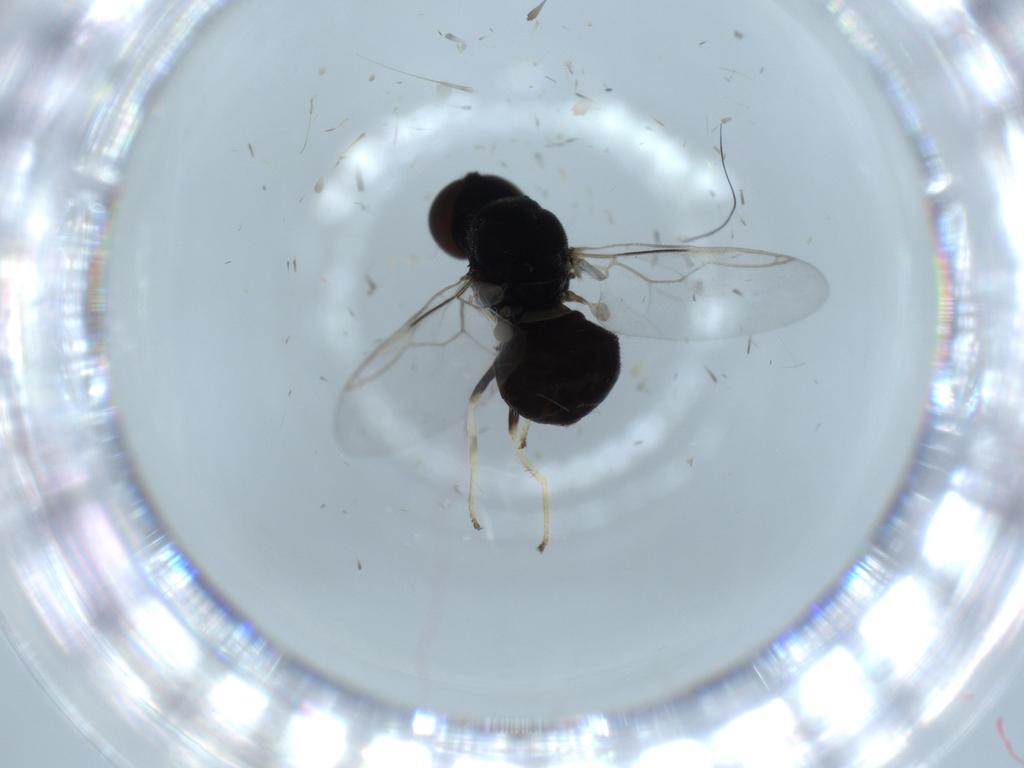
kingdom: Animalia
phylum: Arthropoda
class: Insecta
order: Diptera
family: Stratiomyidae
